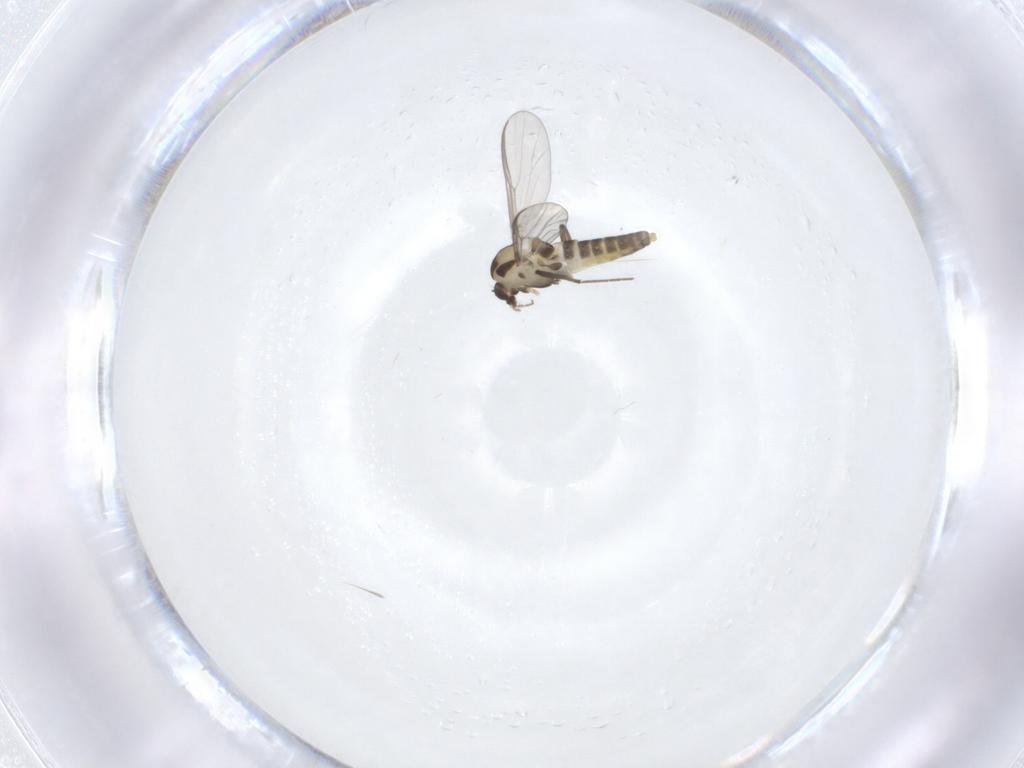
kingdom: Animalia
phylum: Arthropoda
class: Insecta
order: Diptera
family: Chironomidae
